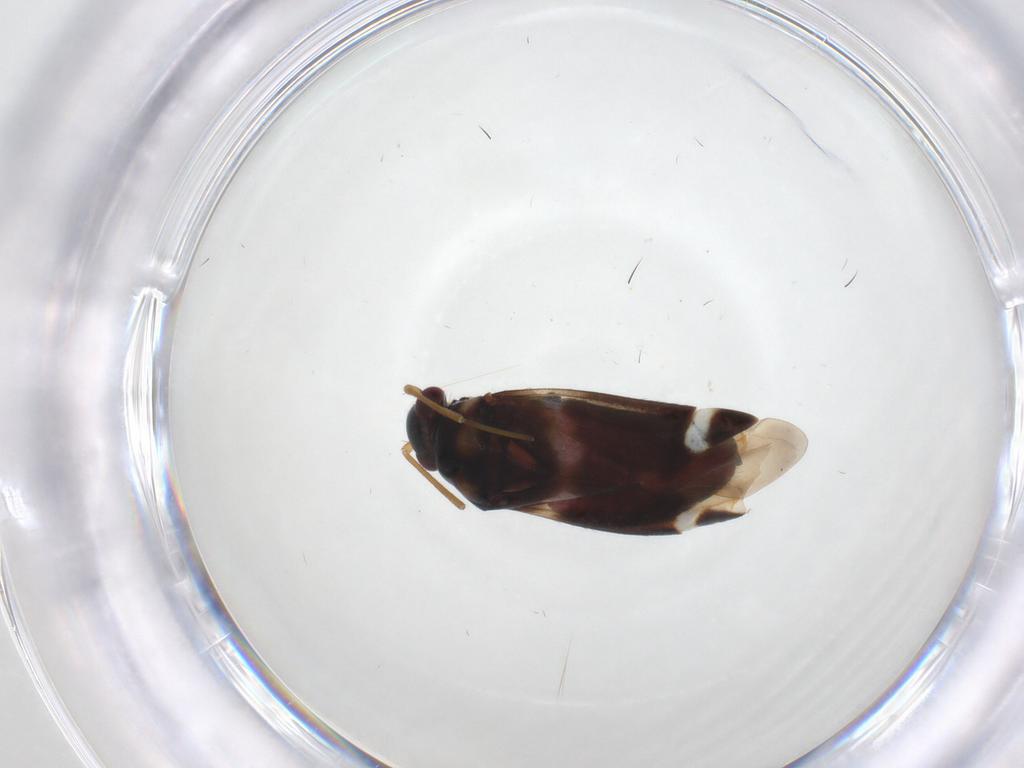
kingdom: Animalia
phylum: Arthropoda
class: Insecta
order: Hemiptera
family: Miridae
